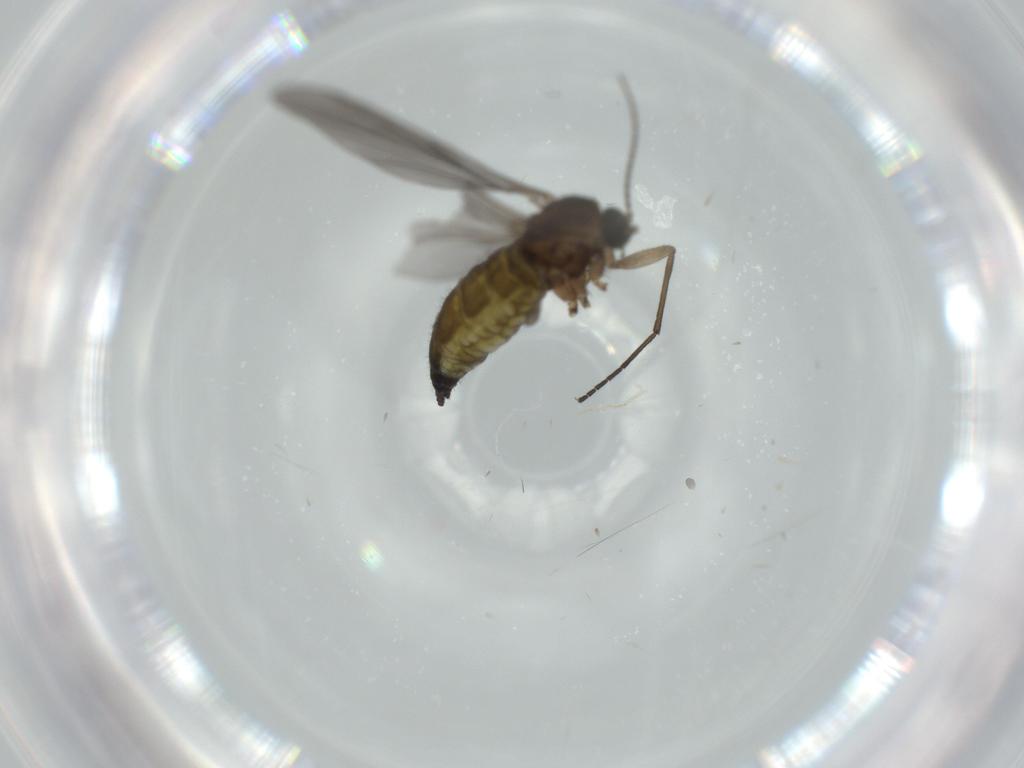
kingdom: Animalia
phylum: Arthropoda
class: Insecta
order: Diptera
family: Sciaridae
